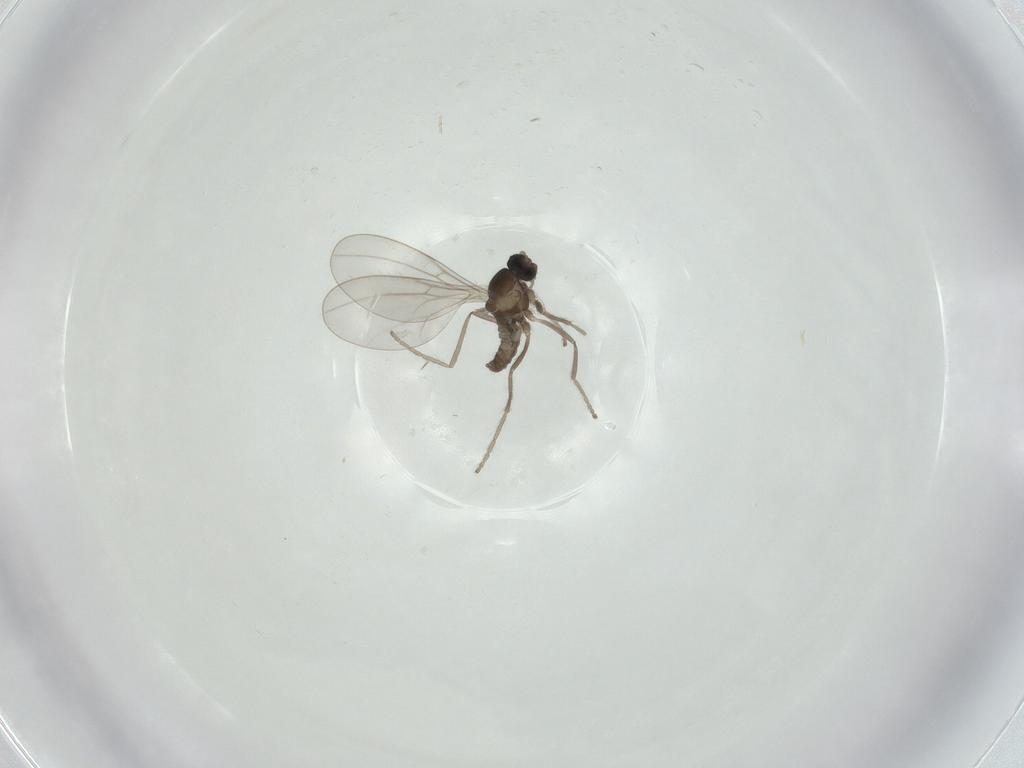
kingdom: Animalia
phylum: Arthropoda
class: Insecta
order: Diptera
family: Cecidomyiidae
